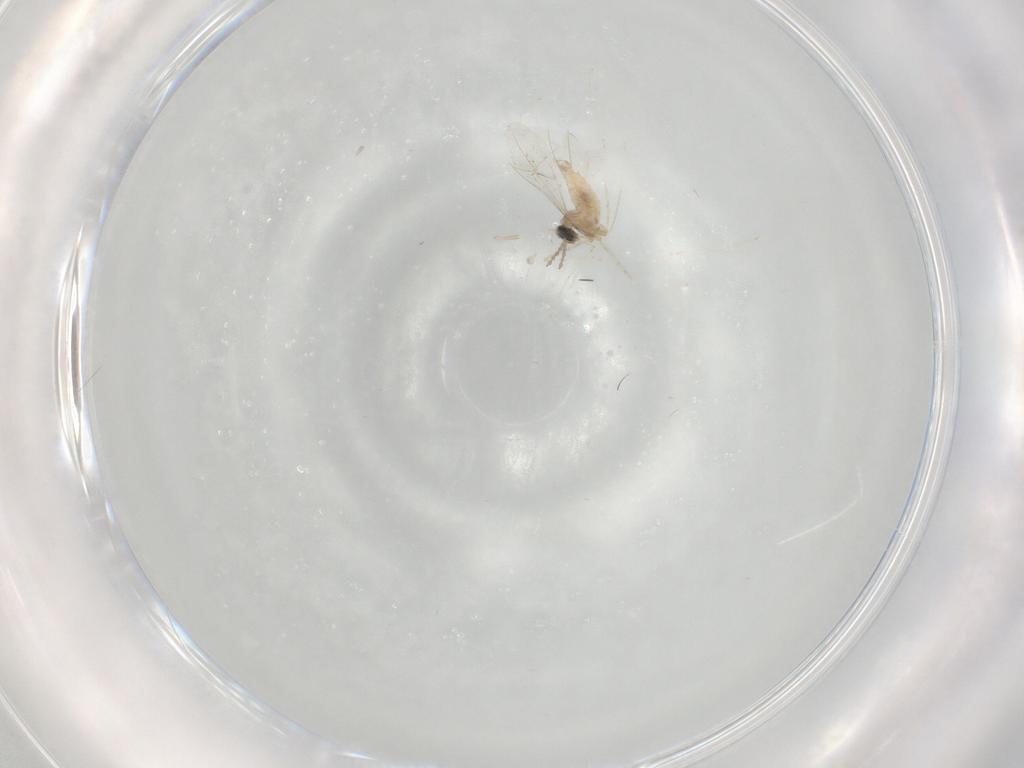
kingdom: Animalia
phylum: Arthropoda
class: Insecta
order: Diptera
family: Cecidomyiidae
